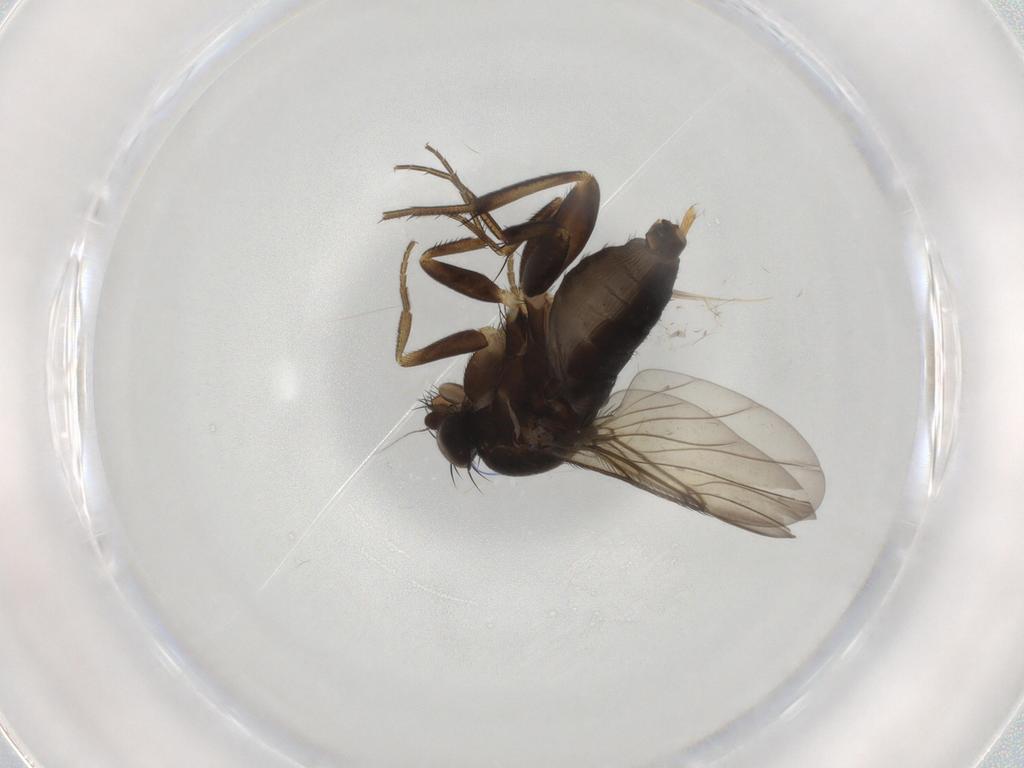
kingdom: Animalia
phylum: Arthropoda
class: Insecta
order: Diptera
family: Phoridae
